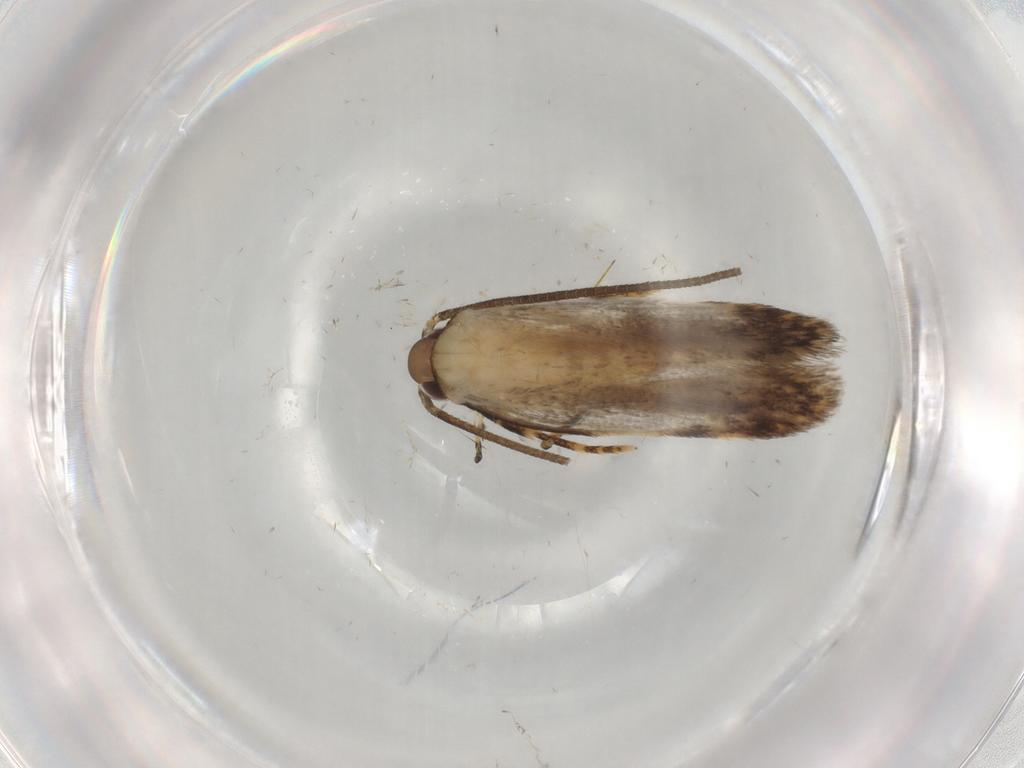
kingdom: Animalia
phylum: Arthropoda
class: Insecta
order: Lepidoptera
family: Autostichidae
